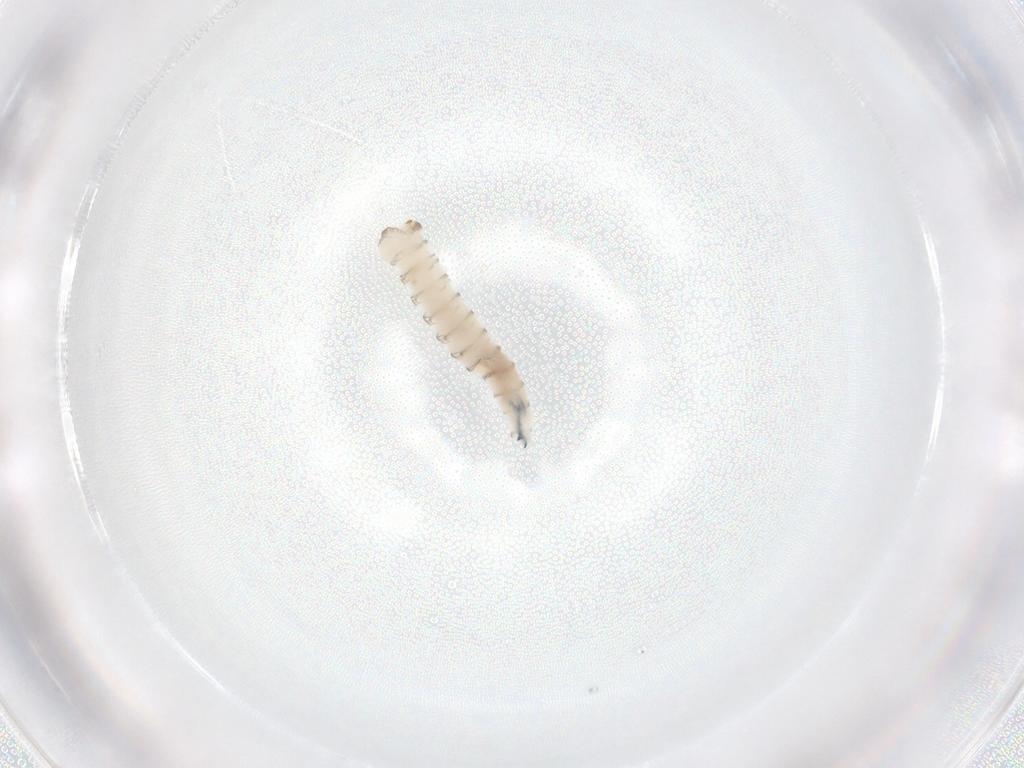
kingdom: Animalia
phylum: Arthropoda
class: Insecta
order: Diptera
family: Sarcophagidae
